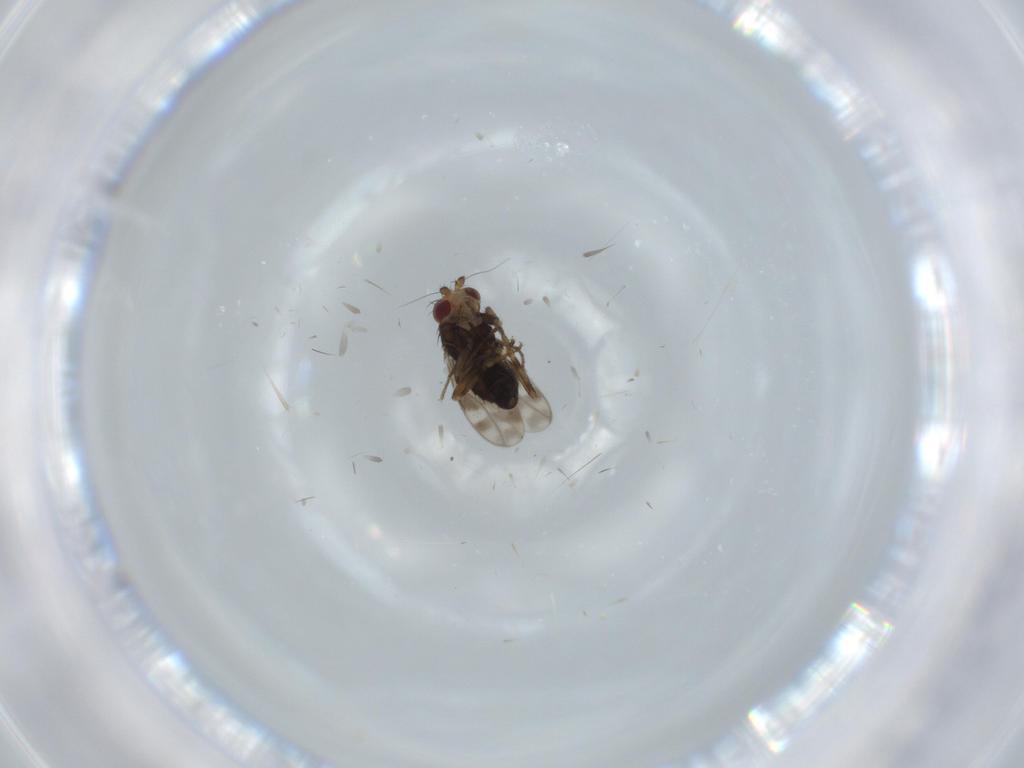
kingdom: Animalia
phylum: Arthropoda
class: Insecta
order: Diptera
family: Sphaeroceridae
